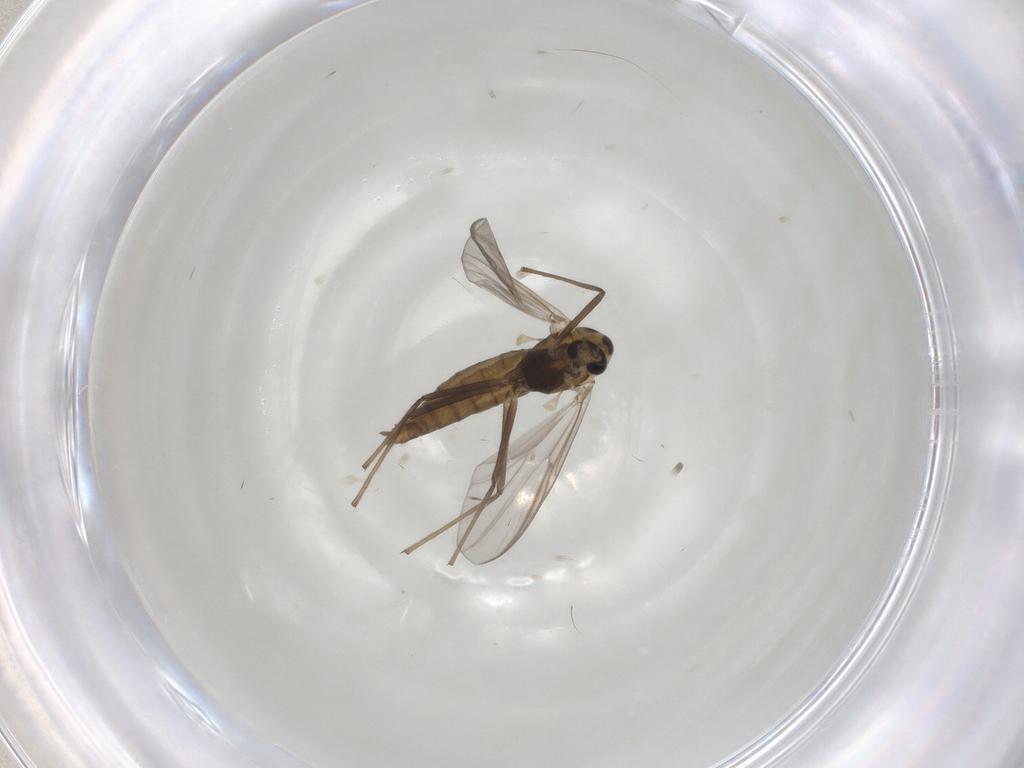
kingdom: Animalia
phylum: Arthropoda
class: Insecta
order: Diptera
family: Chironomidae
